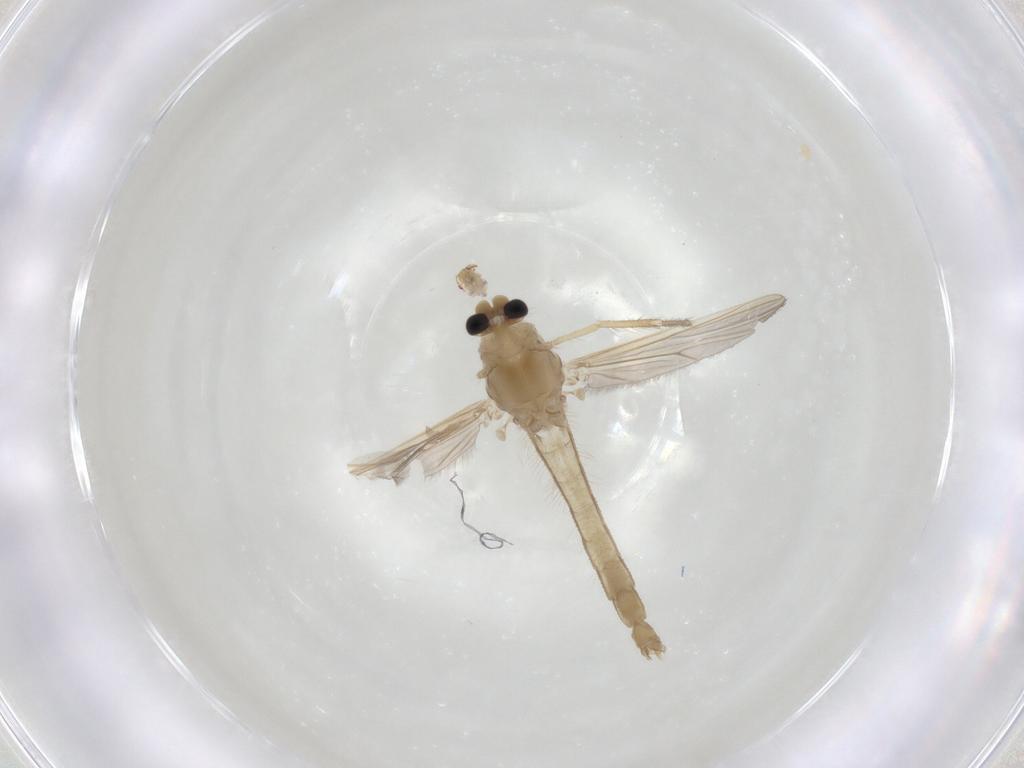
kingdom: Animalia
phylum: Arthropoda
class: Insecta
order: Diptera
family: Chironomidae
